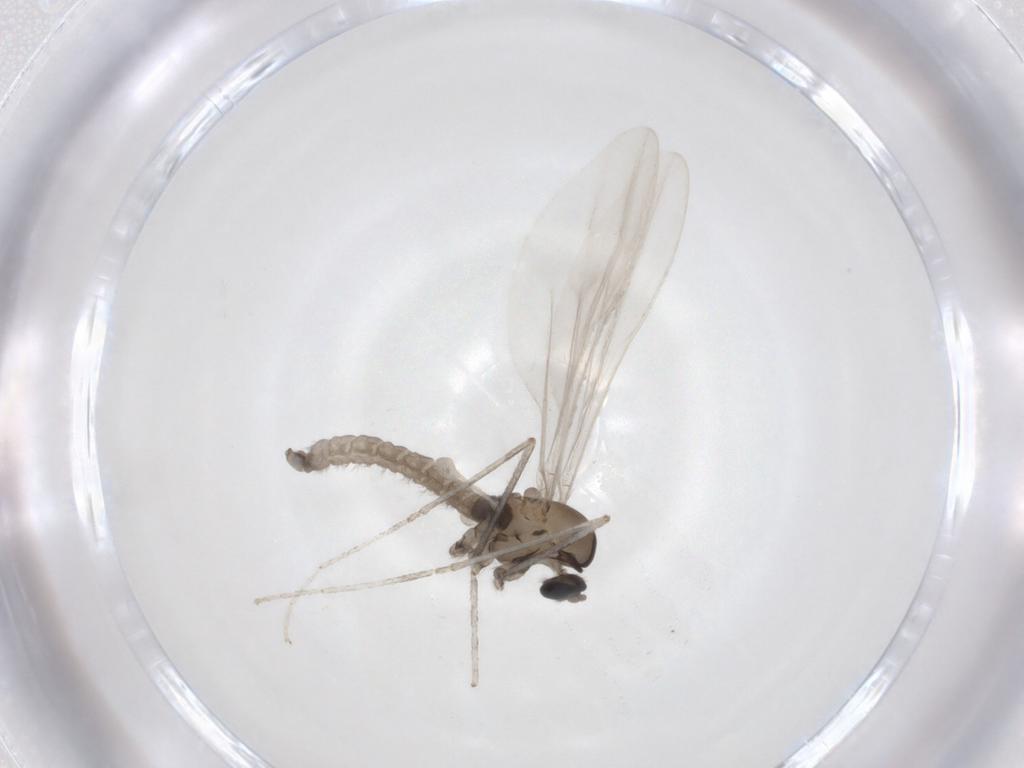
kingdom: Animalia
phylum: Arthropoda
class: Insecta
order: Diptera
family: Cecidomyiidae
